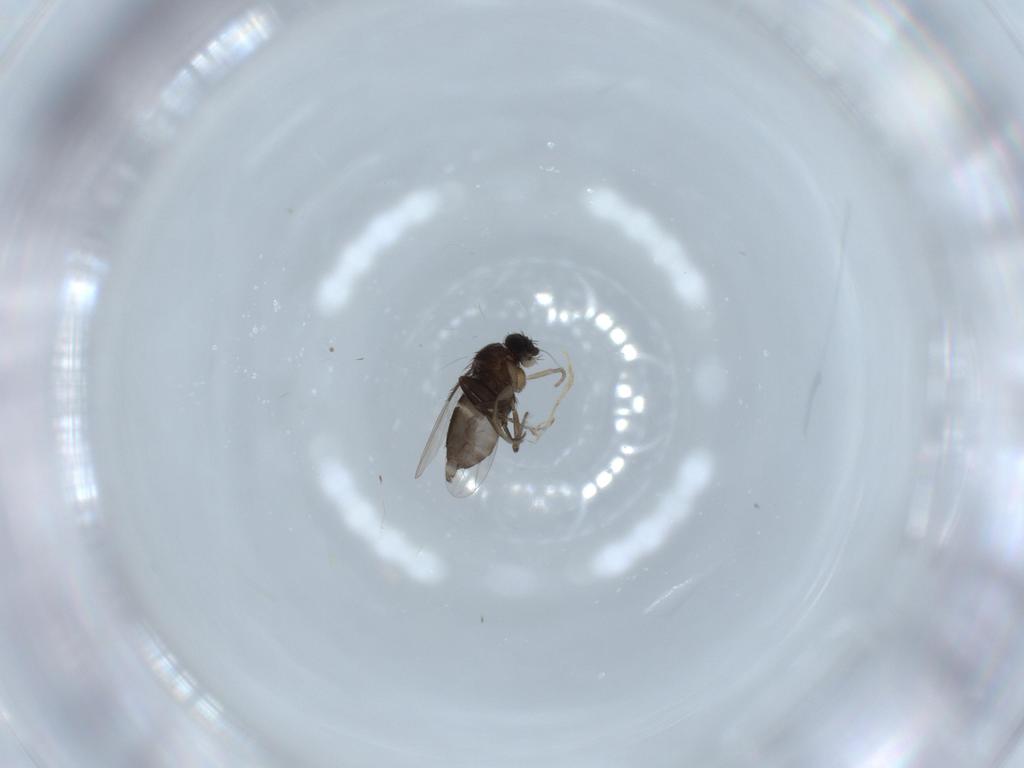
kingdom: Animalia
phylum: Arthropoda
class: Insecta
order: Diptera
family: Phoridae
